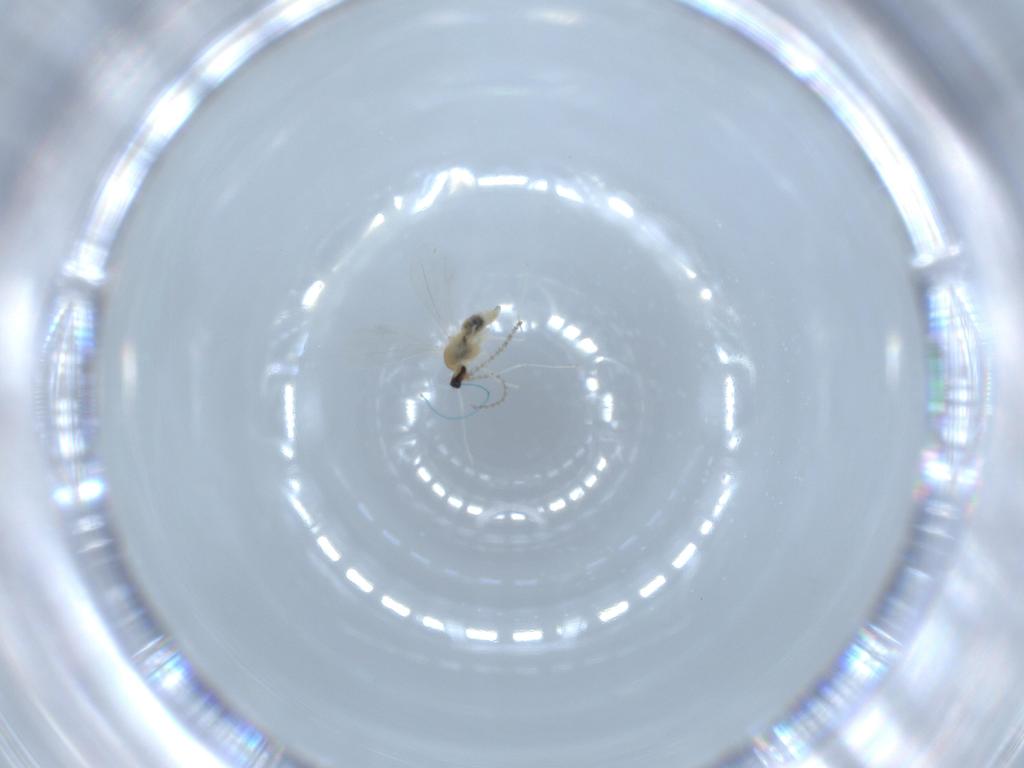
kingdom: Animalia
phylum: Arthropoda
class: Insecta
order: Diptera
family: Cecidomyiidae
